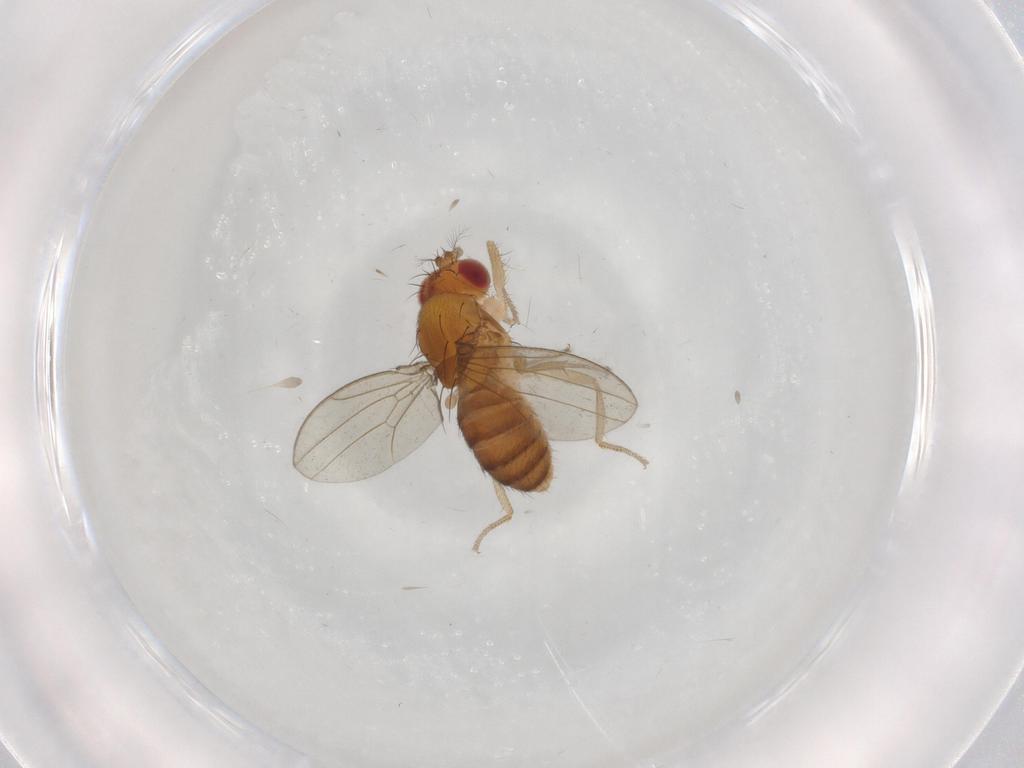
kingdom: Animalia
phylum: Arthropoda
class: Insecta
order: Diptera
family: Drosophilidae
